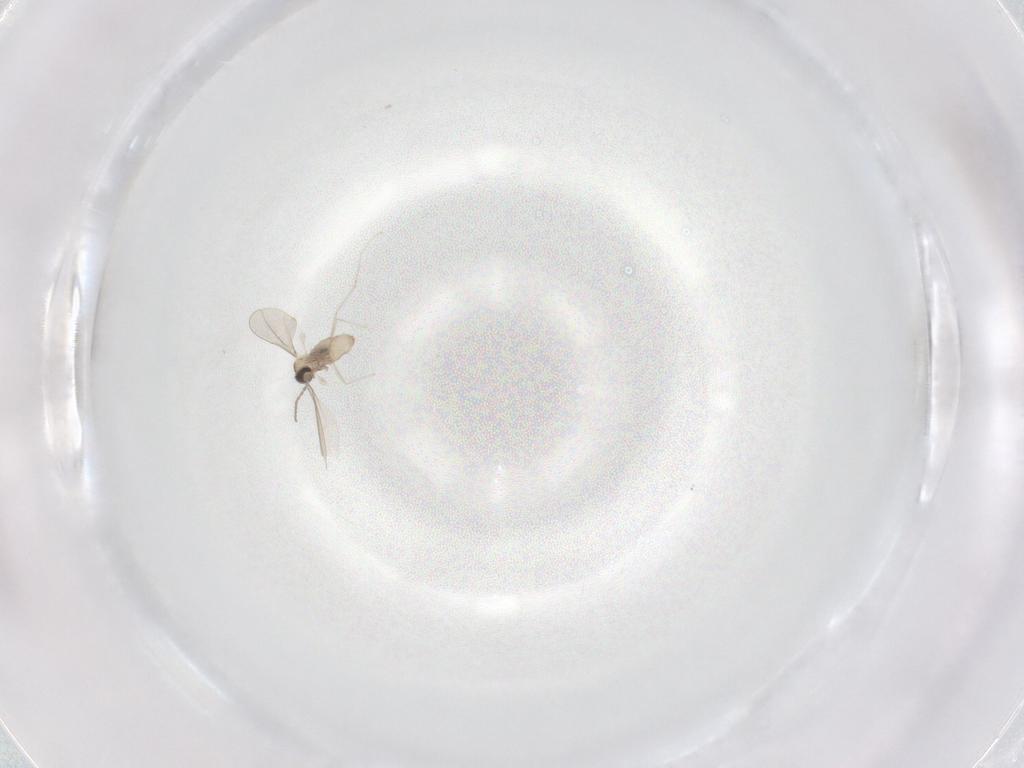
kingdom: Animalia
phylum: Arthropoda
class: Insecta
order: Diptera
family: Cecidomyiidae
